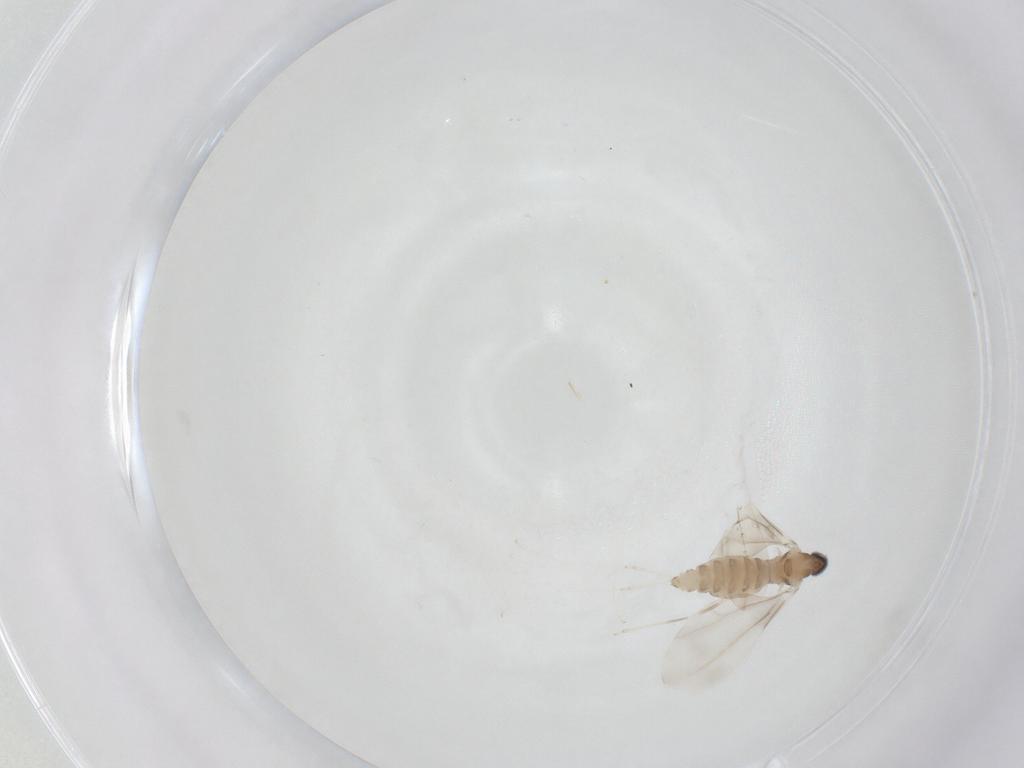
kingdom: Animalia
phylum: Arthropoda
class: Insecta
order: Diptera
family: Cecidomyiidae
